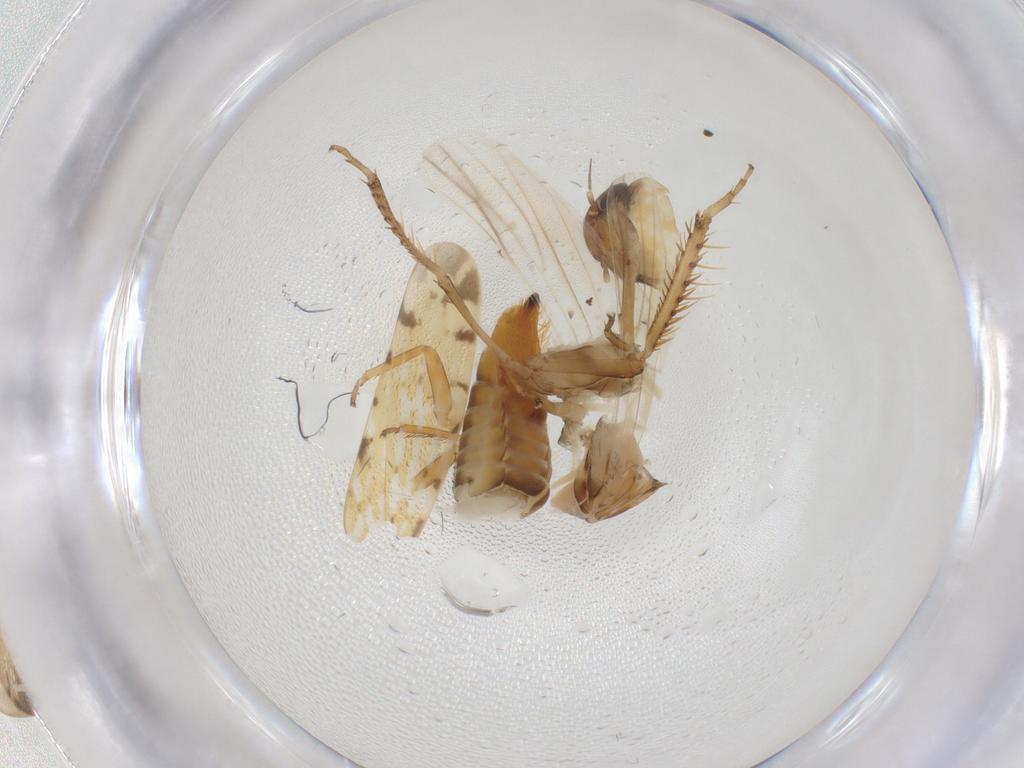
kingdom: Animalia
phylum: Arthropoda
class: Insecta
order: Hemiptera
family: Cicadellidae
